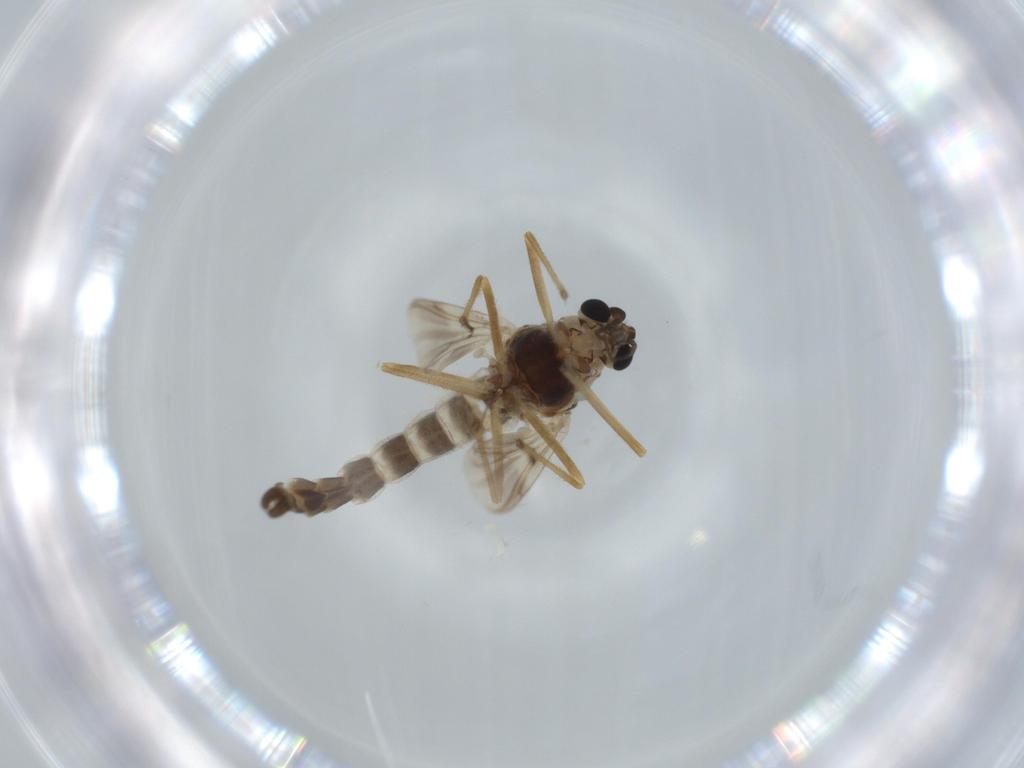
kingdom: Animalia
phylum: Arthropoda
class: Insecta
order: Diptera
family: Chironomidae
